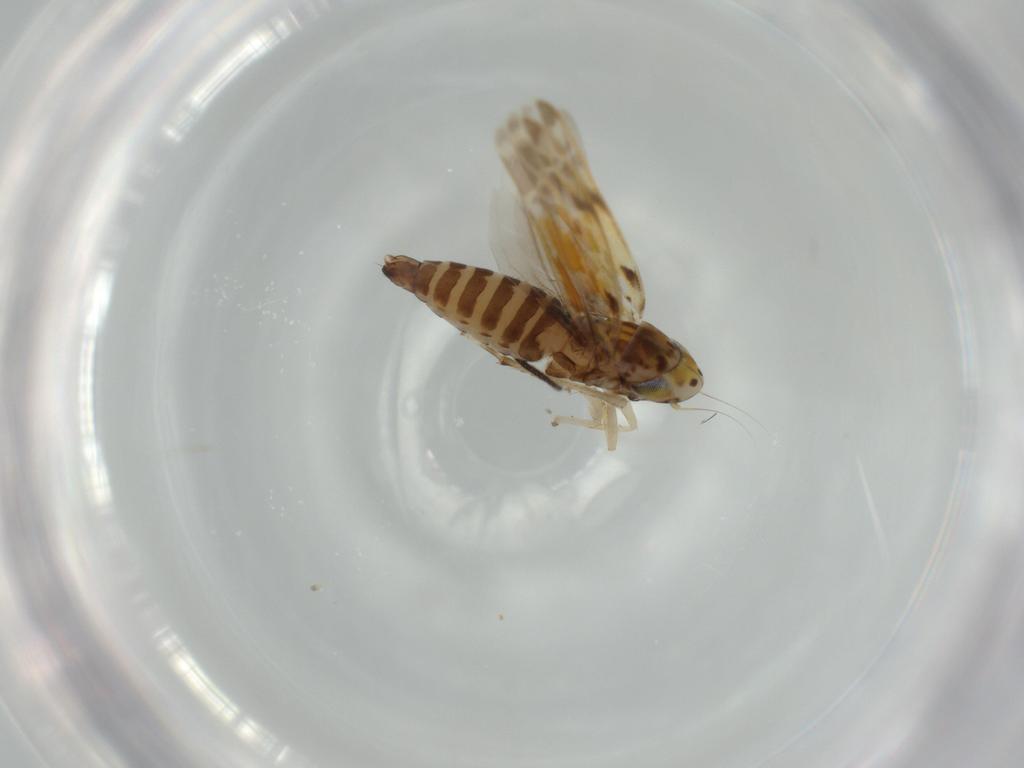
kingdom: Animalia
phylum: Arthropoda
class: Insecta
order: Hemiptera
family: Cicadellidae
